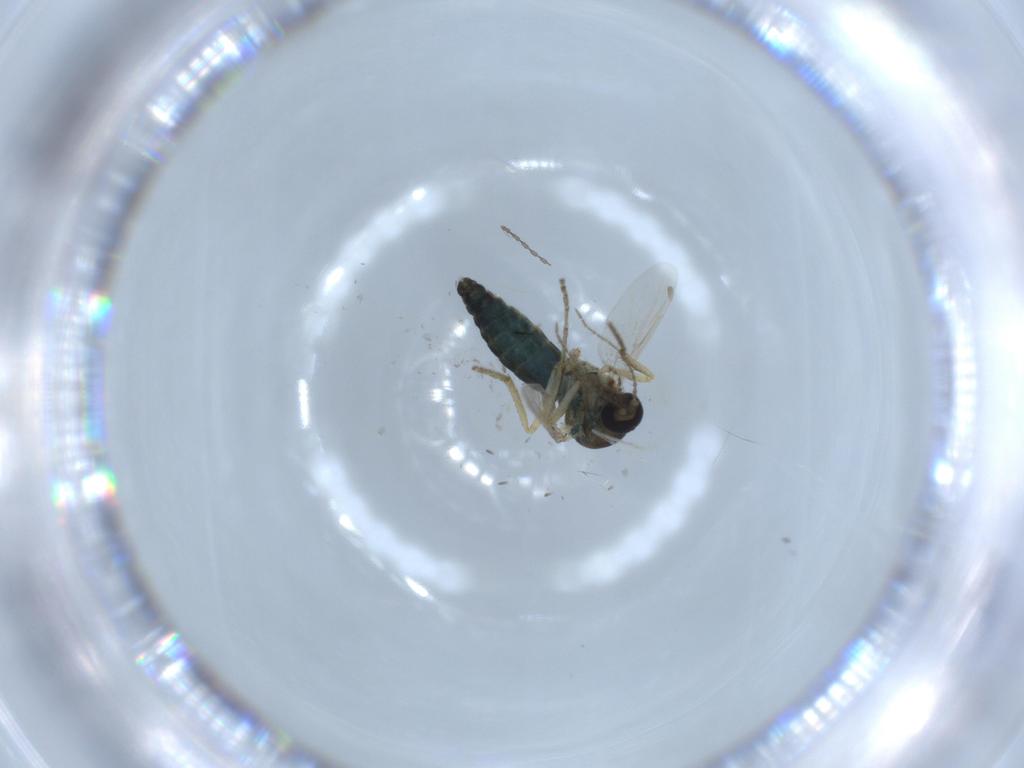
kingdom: Animalia
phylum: Arthropoda
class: Insecta
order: Diptera
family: Ceratopogonidae
